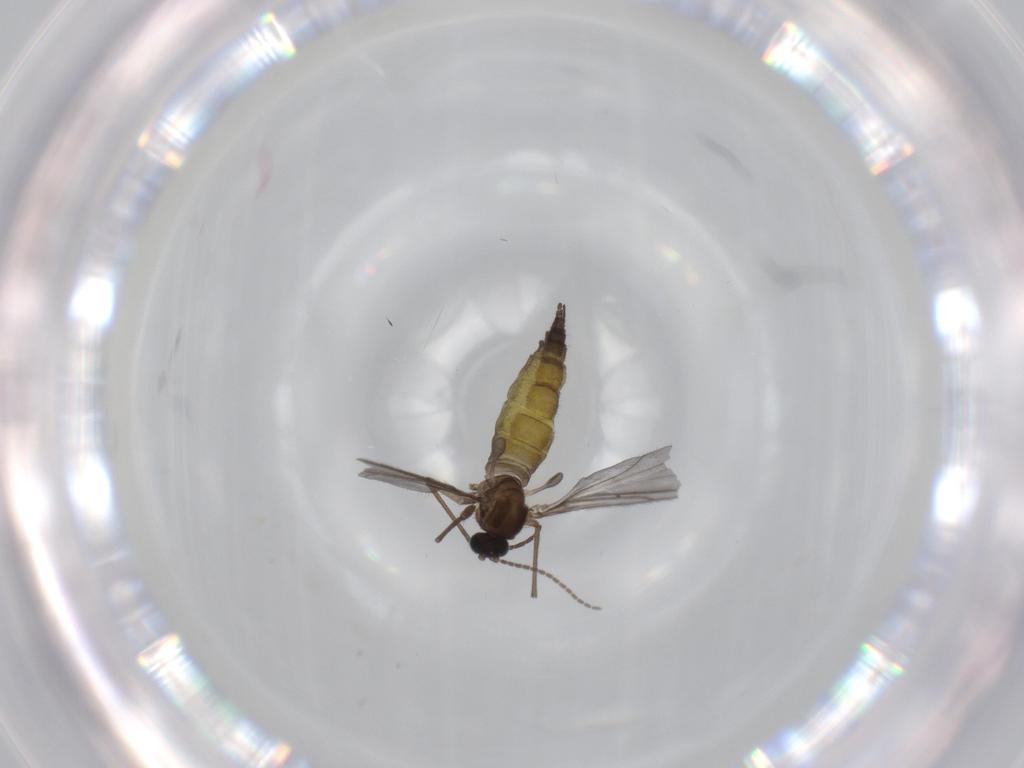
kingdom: Animalia
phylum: Arthropoda
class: Insecta
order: Diptera
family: Sciaridae
